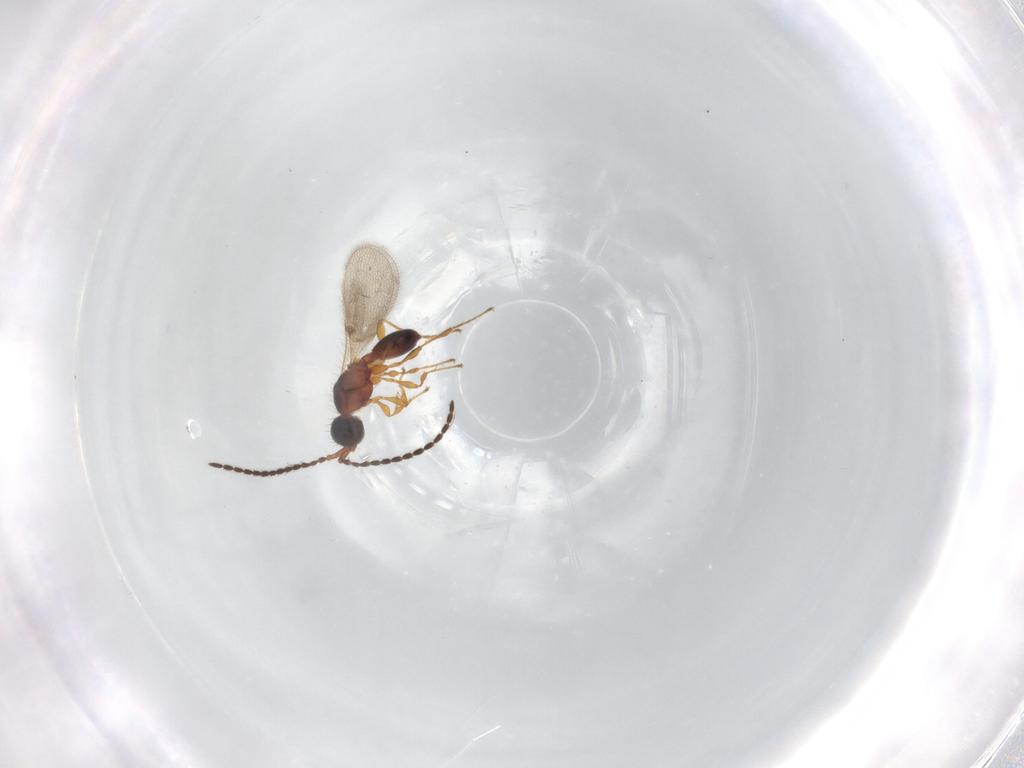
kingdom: Animalia
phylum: Arthropoda
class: Insecta
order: Hymenoptera
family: Diapriidae
